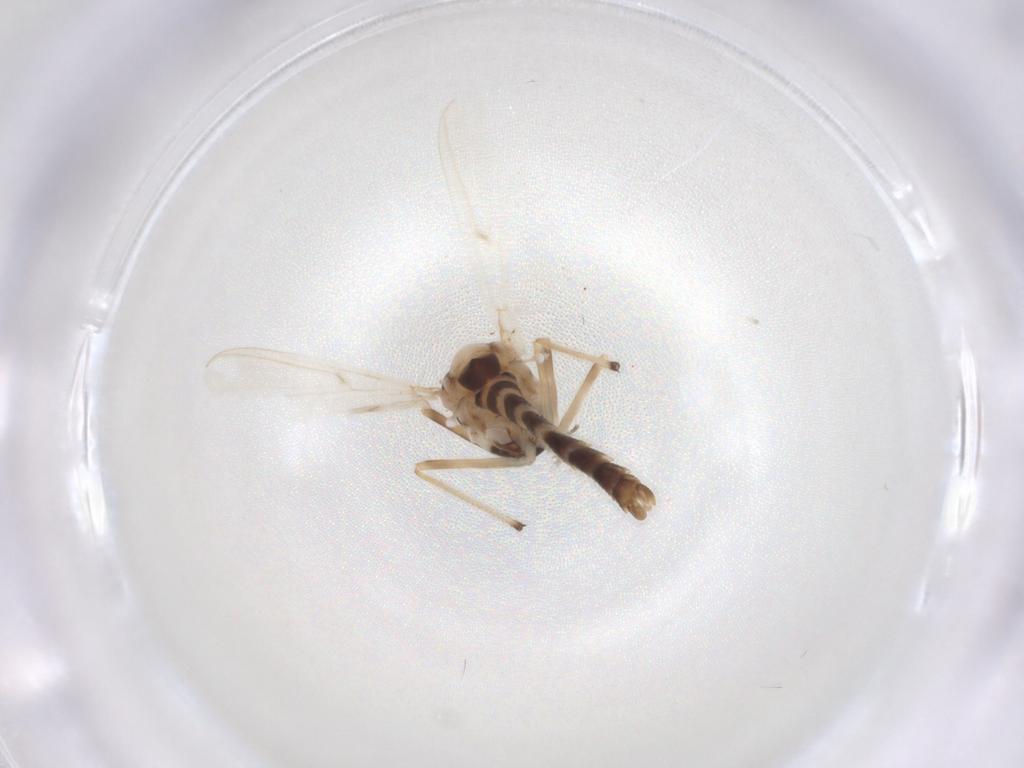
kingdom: Animalia
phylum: Arthropoda
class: Insecta
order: Diptera
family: Chironomidae
